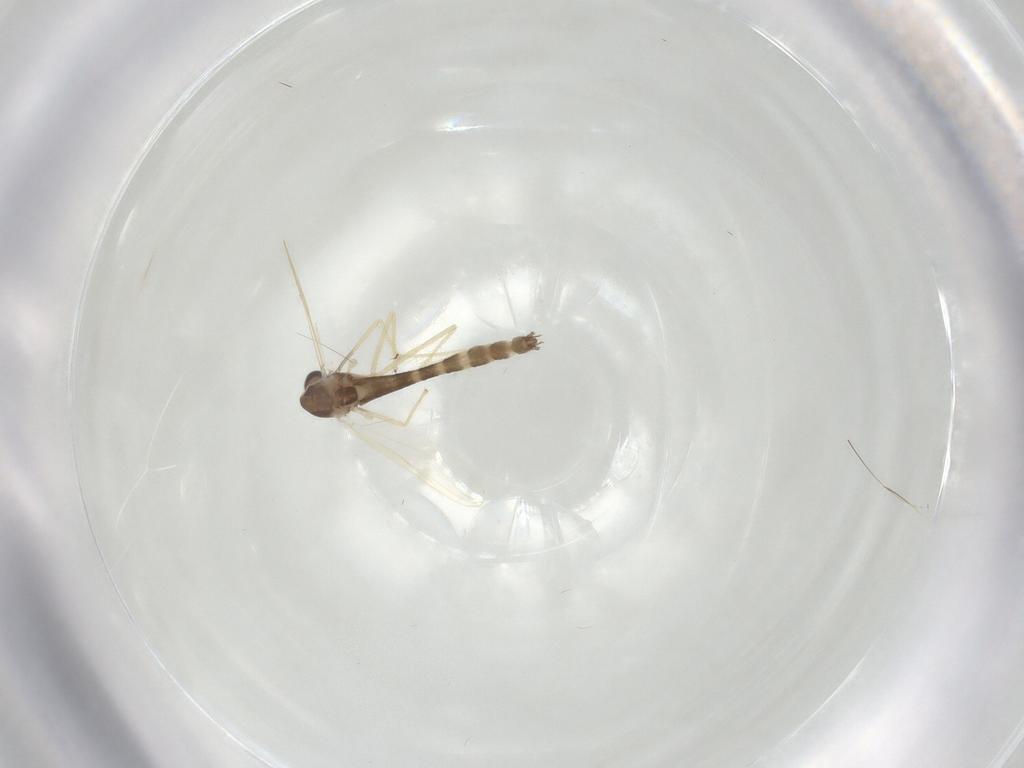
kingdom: Animalia
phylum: Arthropoda
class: Insecta
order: Diptera
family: Chironomidae
